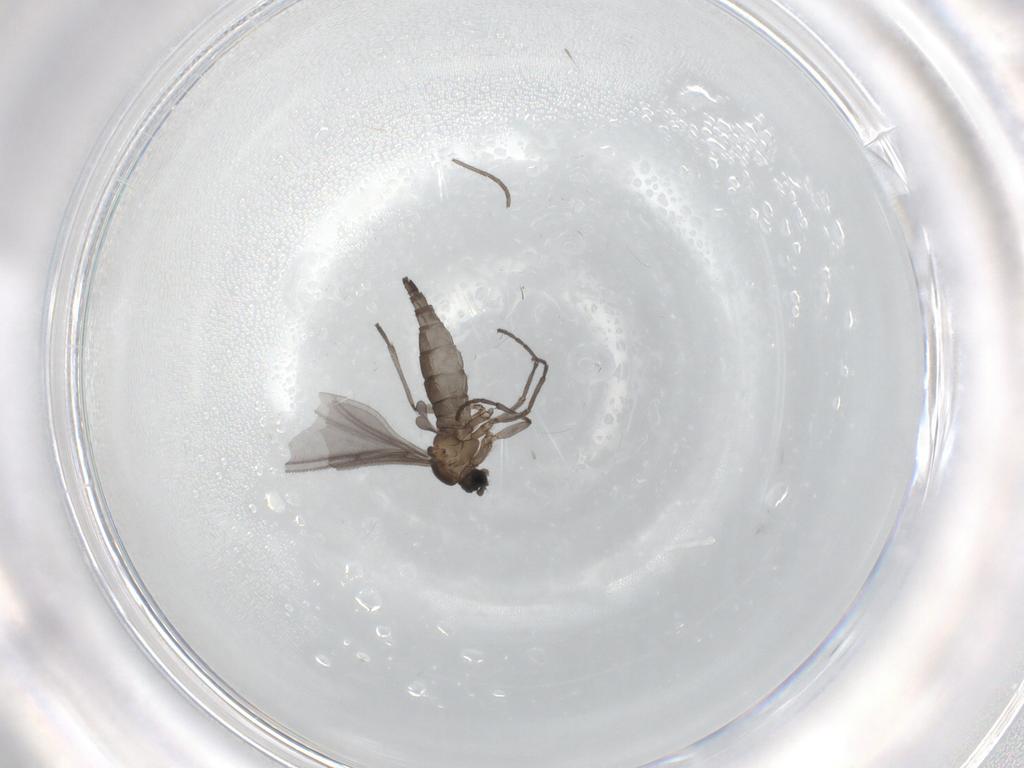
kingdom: Animalia
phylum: Arthropoda
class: Insecta
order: Diptera
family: Sciaridae
